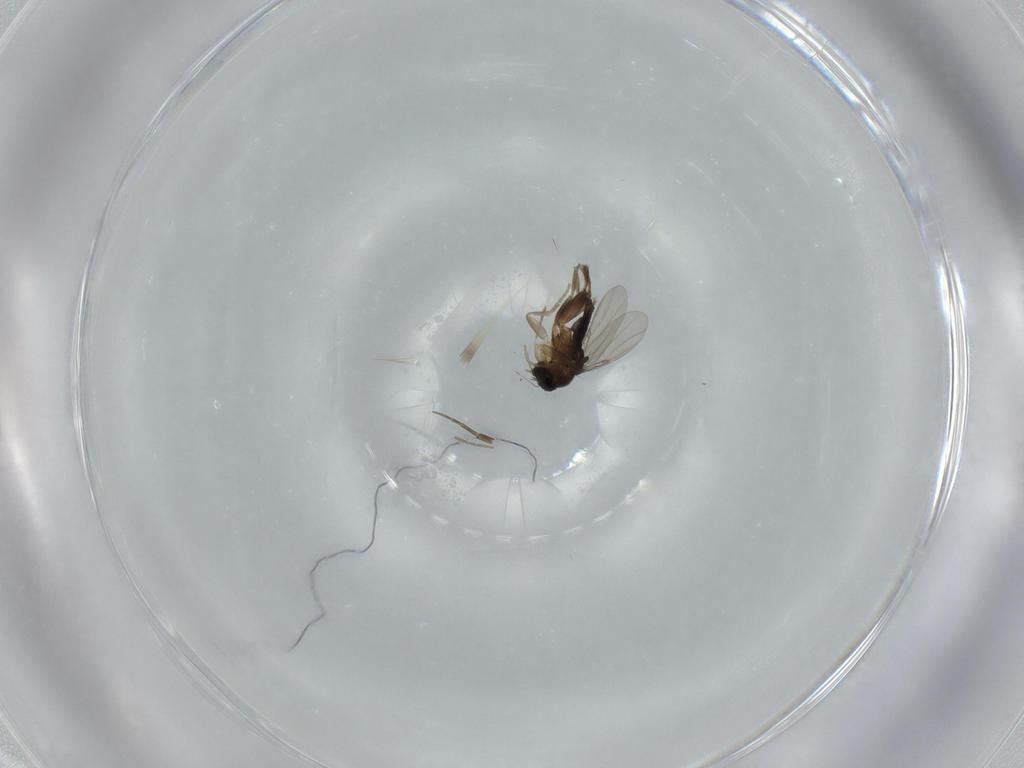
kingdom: Animalia
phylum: Arthropoda
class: Insecta
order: Diptera
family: Phoridae
